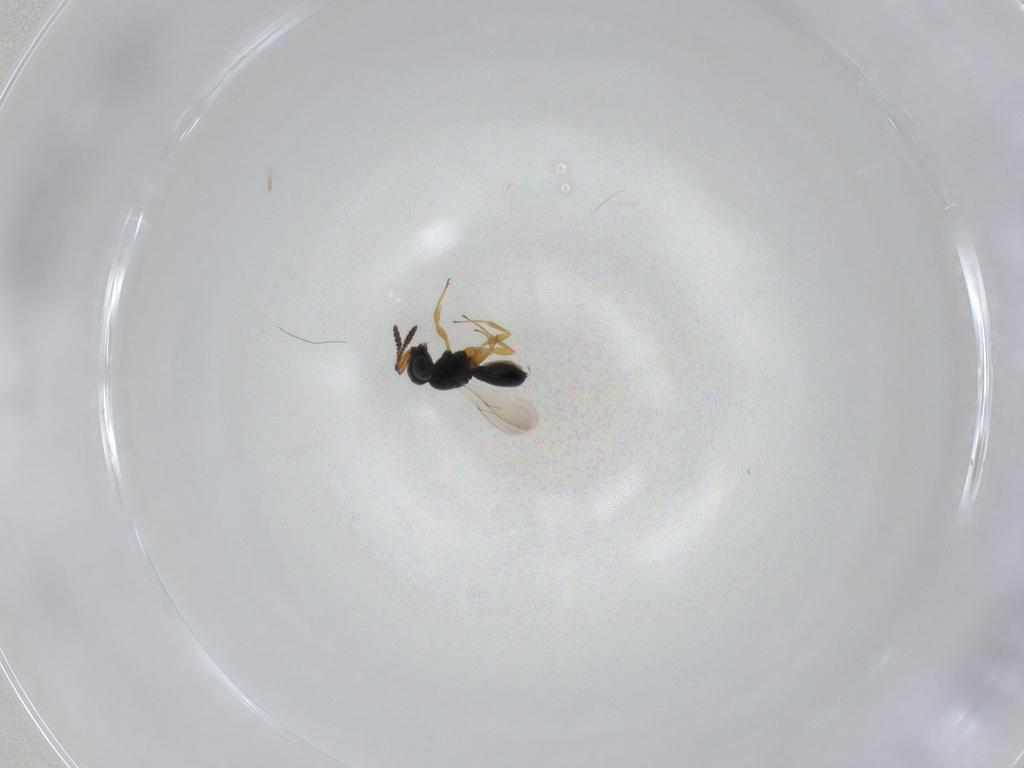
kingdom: Animalia
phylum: Arthropoda
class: Insecta
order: Hymenoptera
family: Scelionidae
